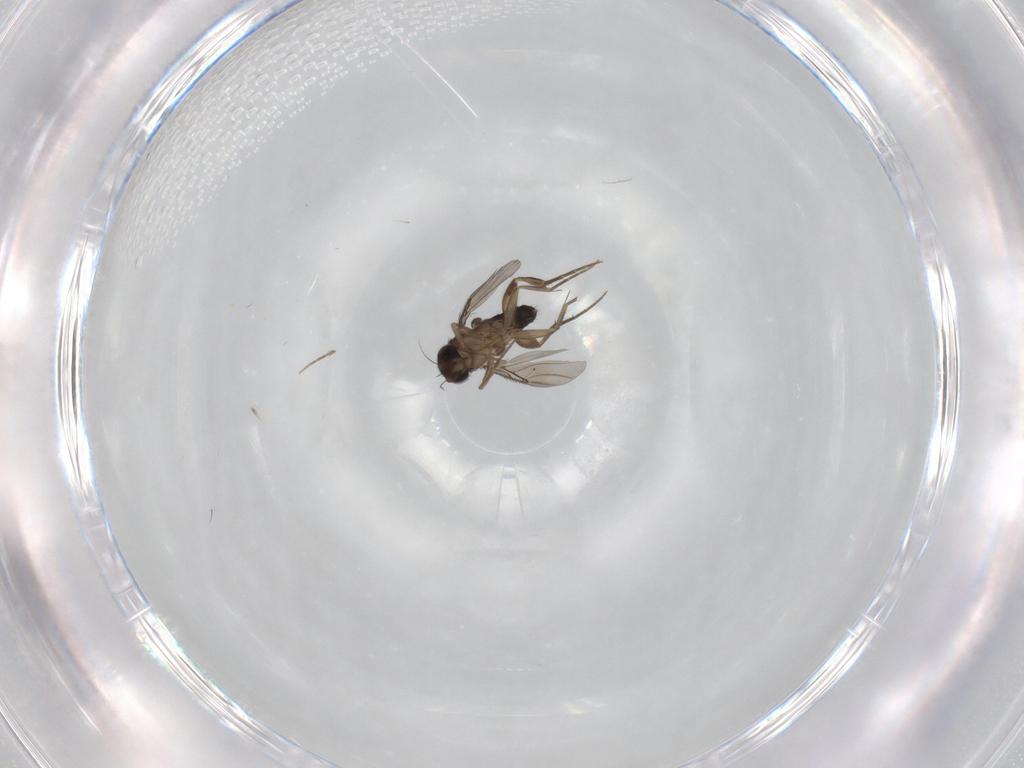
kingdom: Animalia
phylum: Arthropoda
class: Insecta
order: Diptera
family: Phoridae
